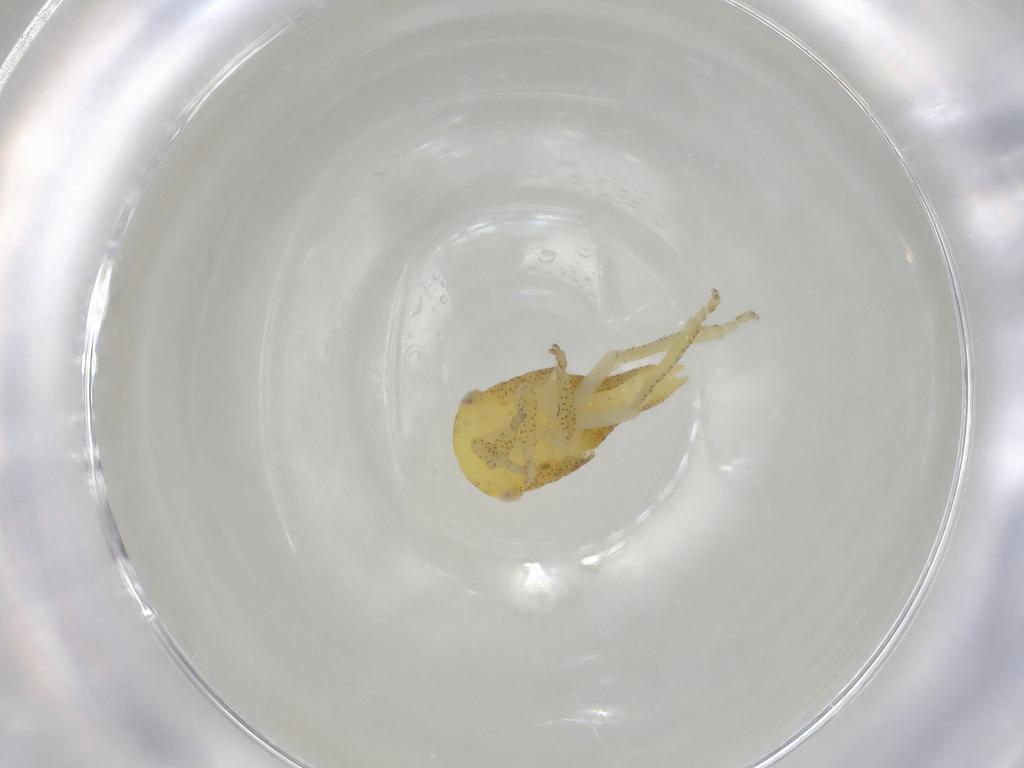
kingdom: Animalia
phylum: Arthropoda
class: Insecta
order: Hemiptera
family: Cicadellidae
